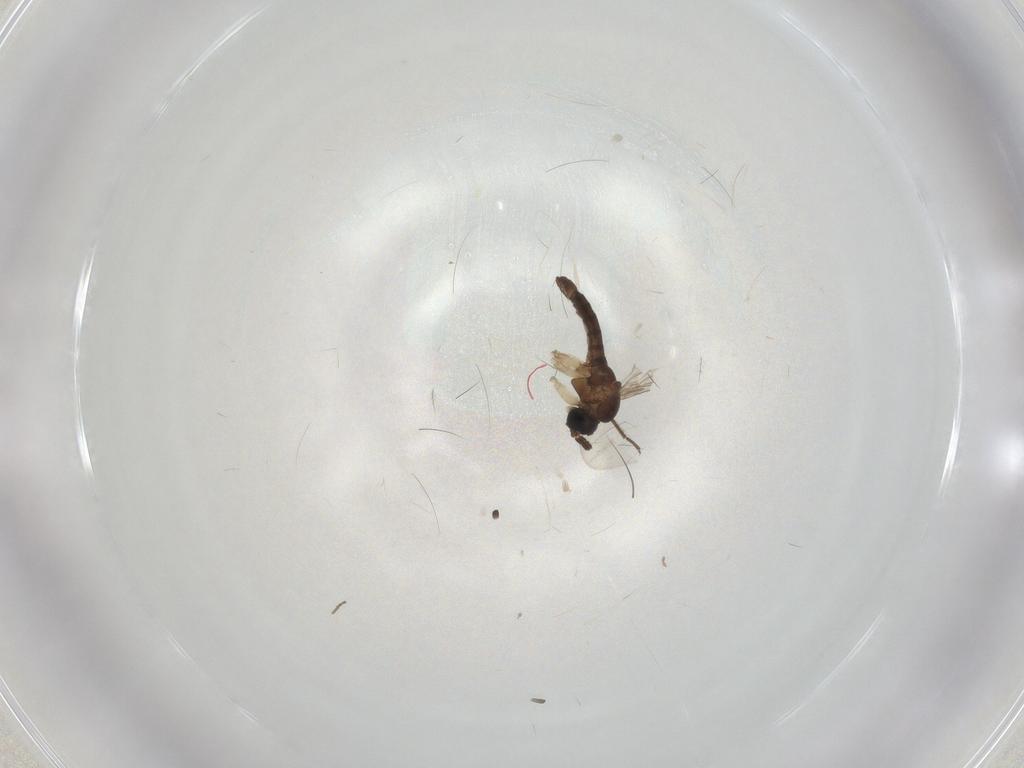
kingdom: Animalia
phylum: Arthropoda
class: Insecta
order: Diptera
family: Sciaridae
